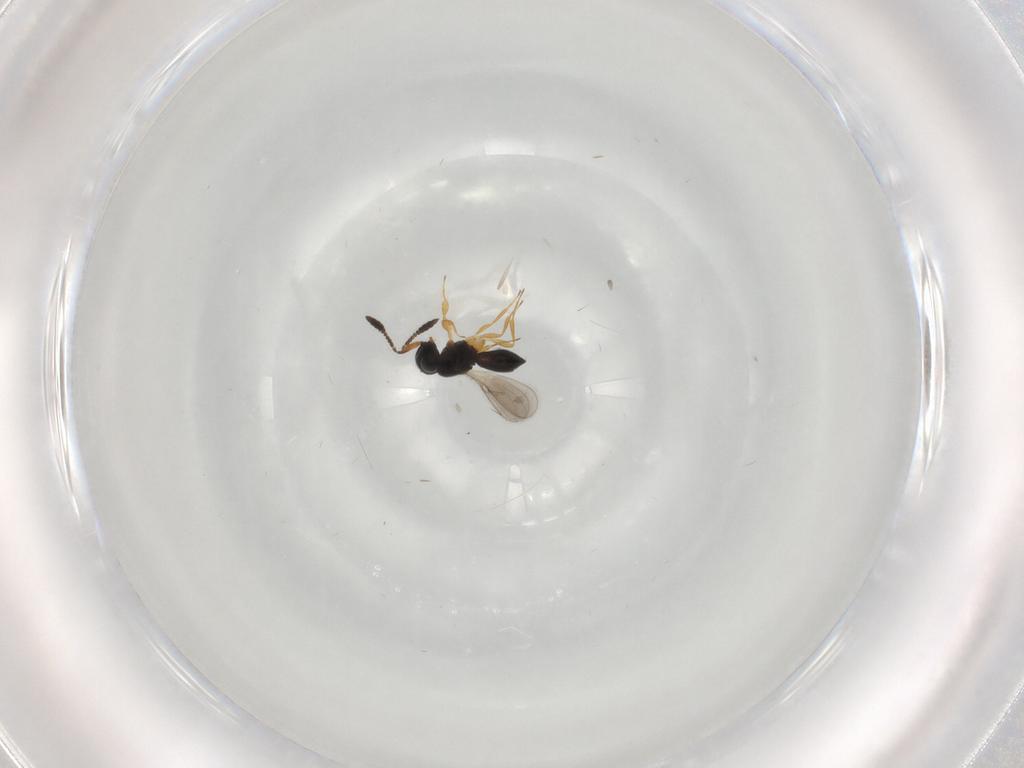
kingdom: Animalia
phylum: Arthropoda
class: Insecta
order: Hymenoptera
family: Scelionidae
